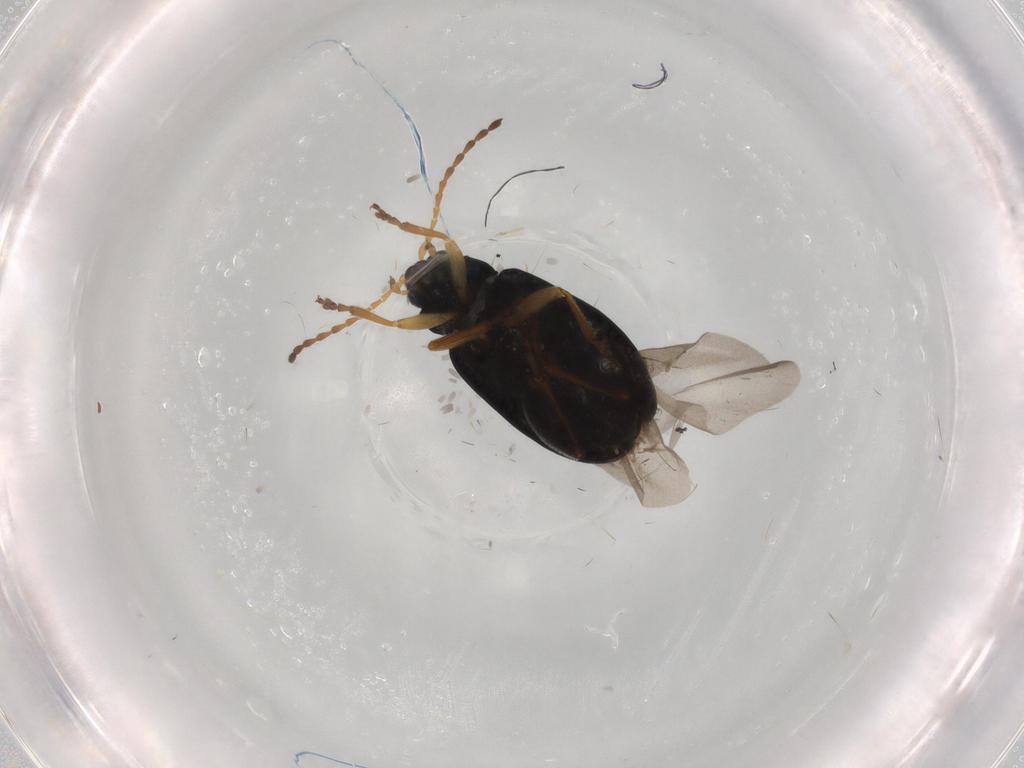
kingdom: Animalia
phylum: Arthropoda
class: Insecta
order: Coleoptera
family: Chrysomelidae
